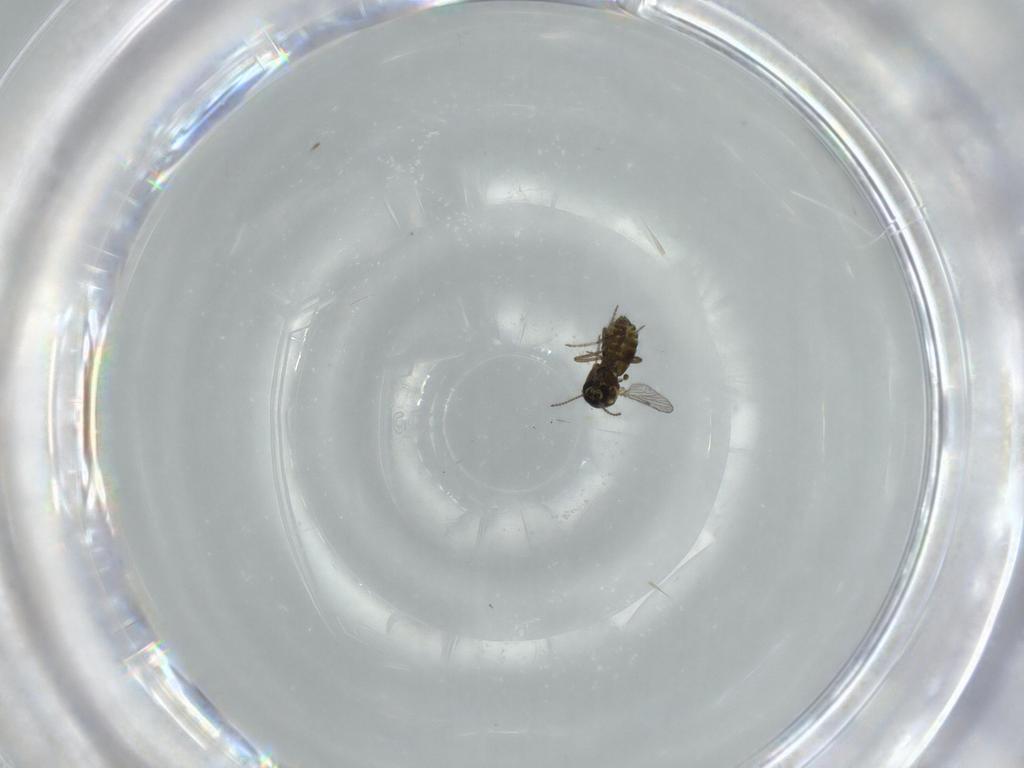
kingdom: Animalia
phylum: Arthropoda
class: Insecta
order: Diptera
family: Ceratopogonidae
